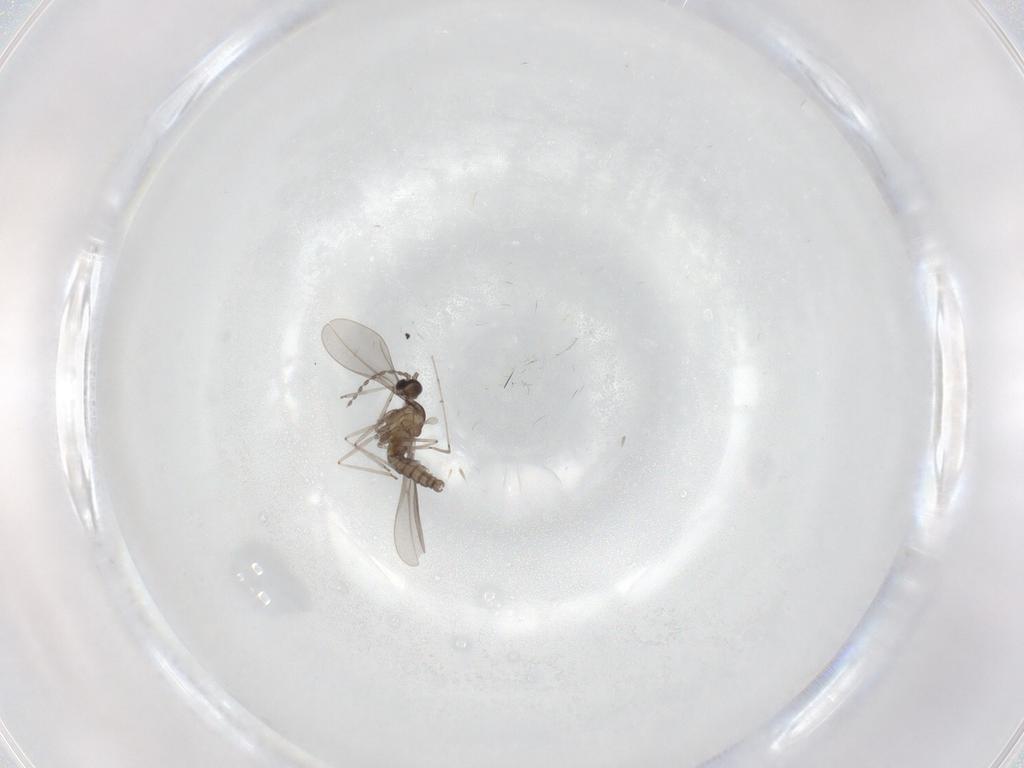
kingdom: Animalia
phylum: Arthropoda
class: Insecta
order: Diptera
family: Cecidomyiidae
